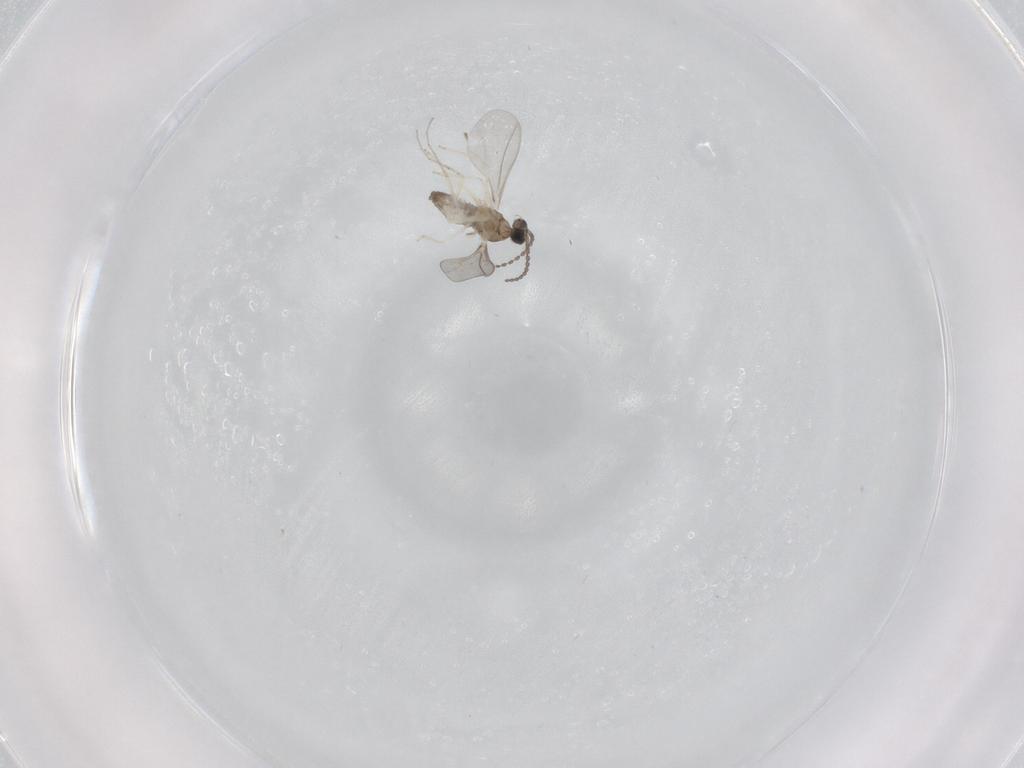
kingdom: Animalia
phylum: Arthropoda
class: Insecta
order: Diptera
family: Cecidomyiidae
